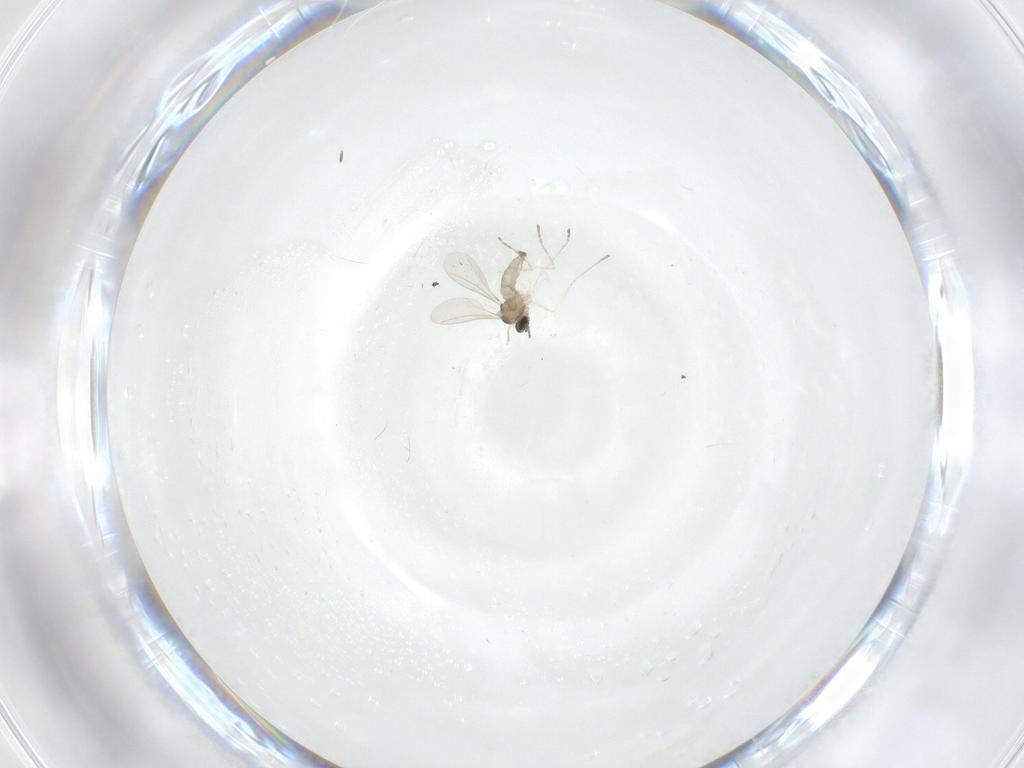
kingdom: Animalia
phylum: Arthropoda
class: Insecta
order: Diptera
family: Cecidomyiidae
